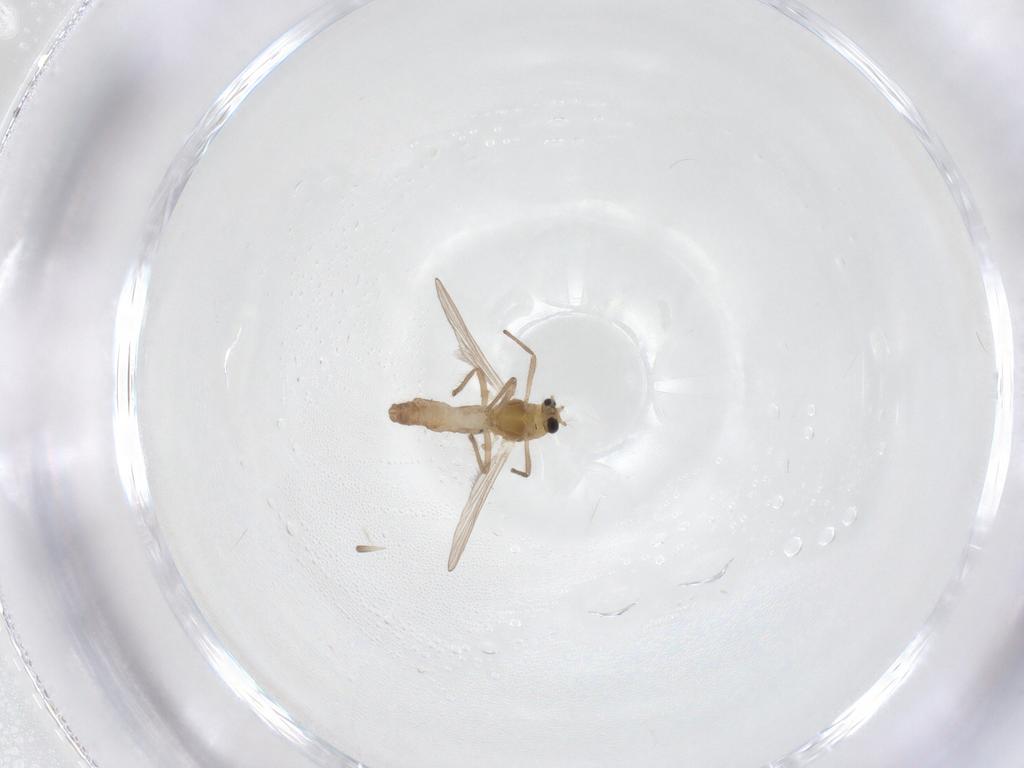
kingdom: Animalia
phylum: Arthropoda
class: Insecta
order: Diptera
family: Chironomidae
